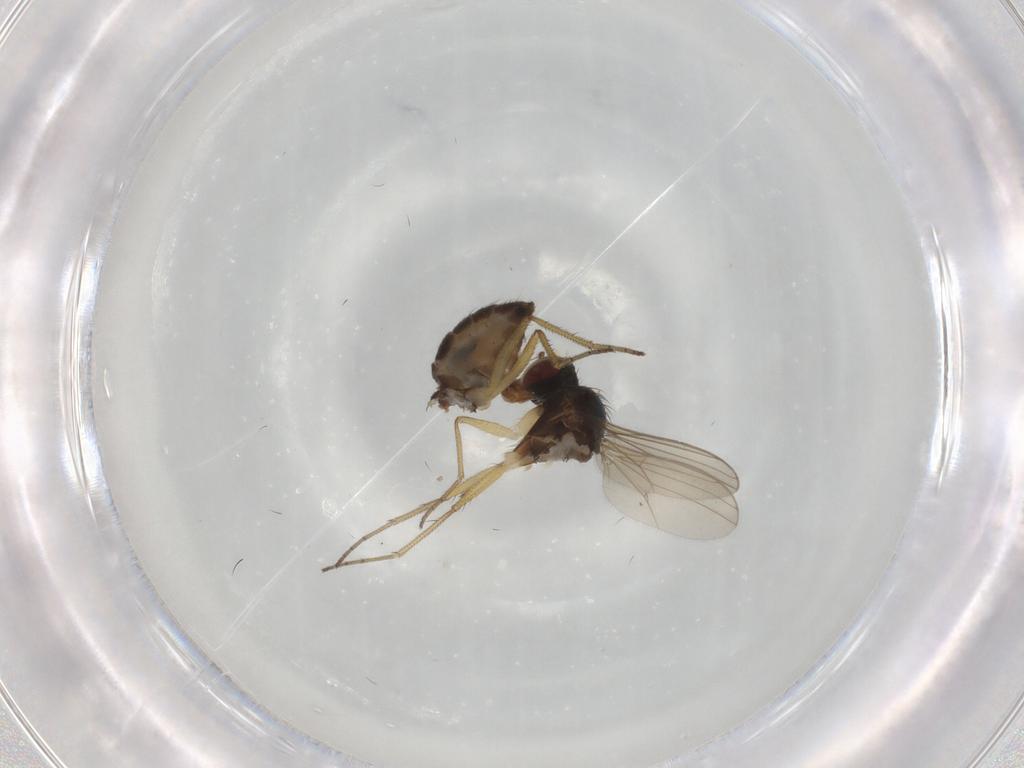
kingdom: Animalia
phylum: Arthropoda
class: Insecta
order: Diptera
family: Dolichopodidae
